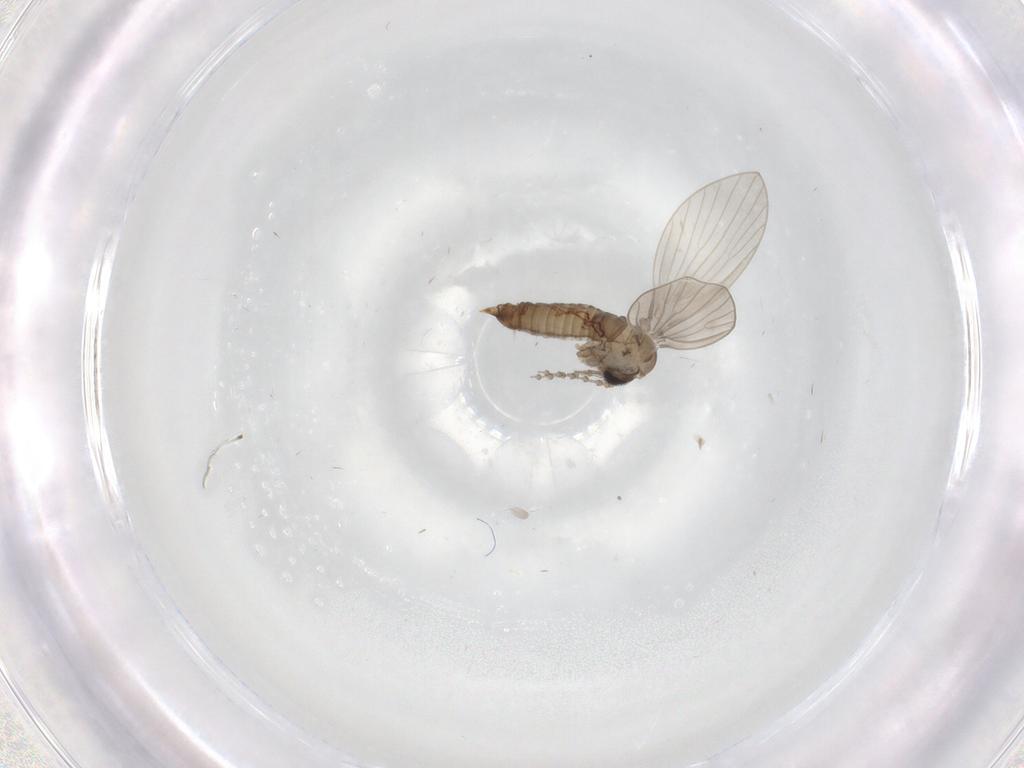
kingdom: Animalia
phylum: Arthropoda
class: Insecta
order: Diptera
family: Psychodidae
